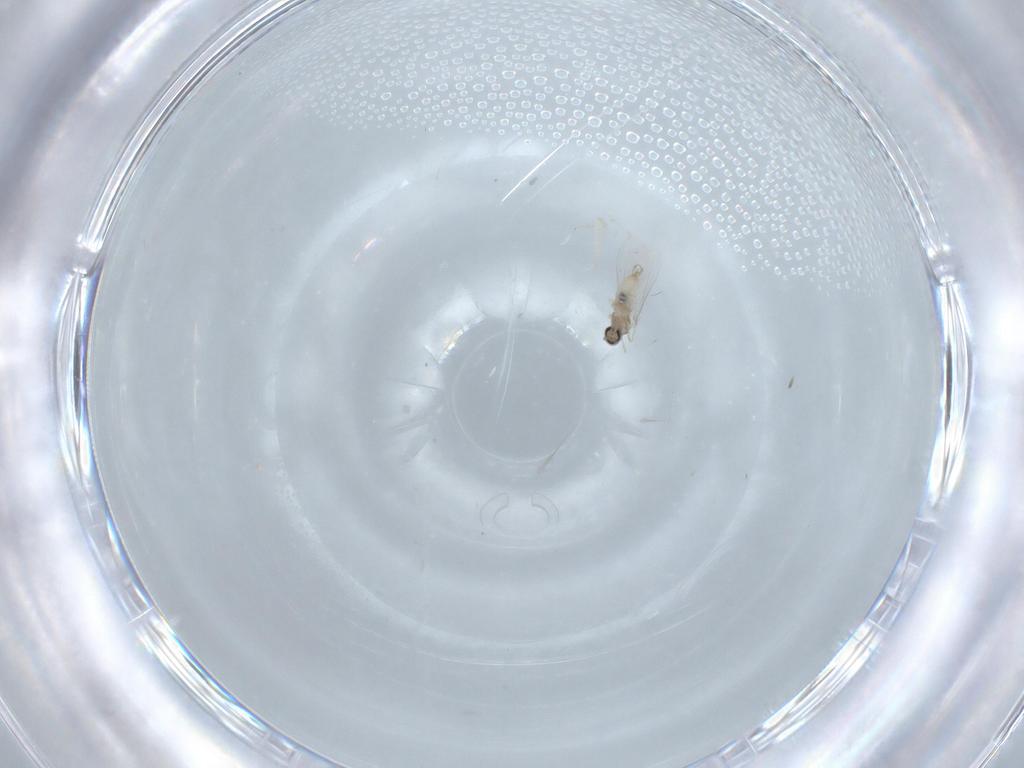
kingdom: Animalia
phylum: Arthropoda
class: Insecta
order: Diptera
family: Cecidomyiidae
